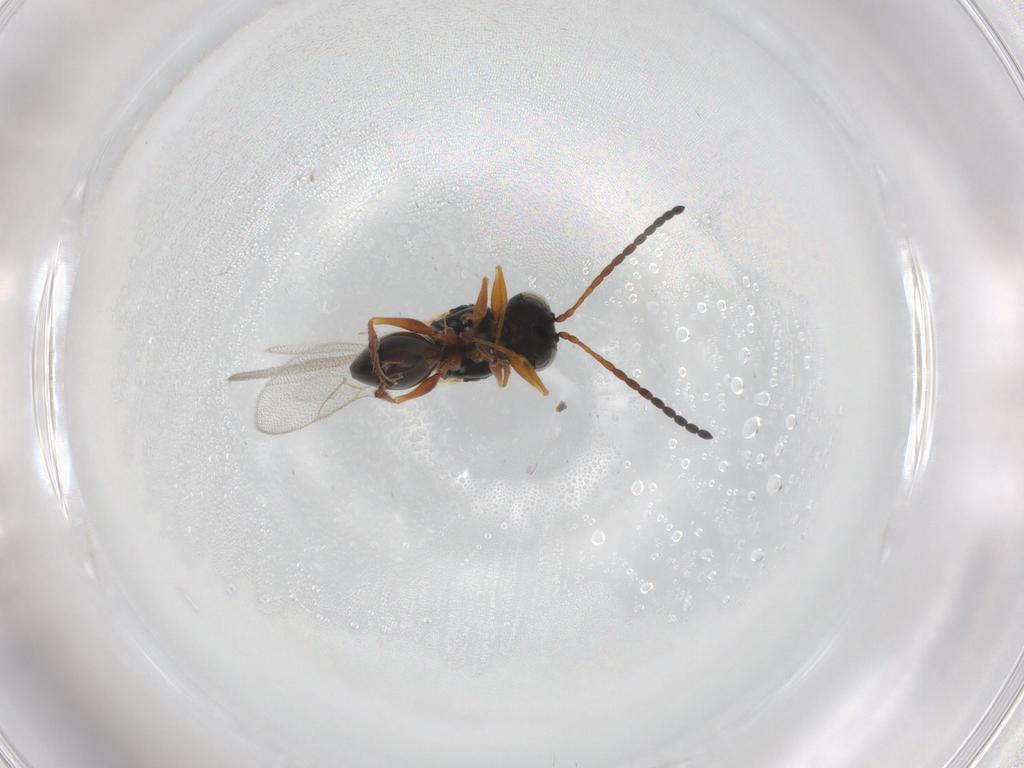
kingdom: Animalia
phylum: Arthropoda
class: Insecta
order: Hymenoptera
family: Figitidae
